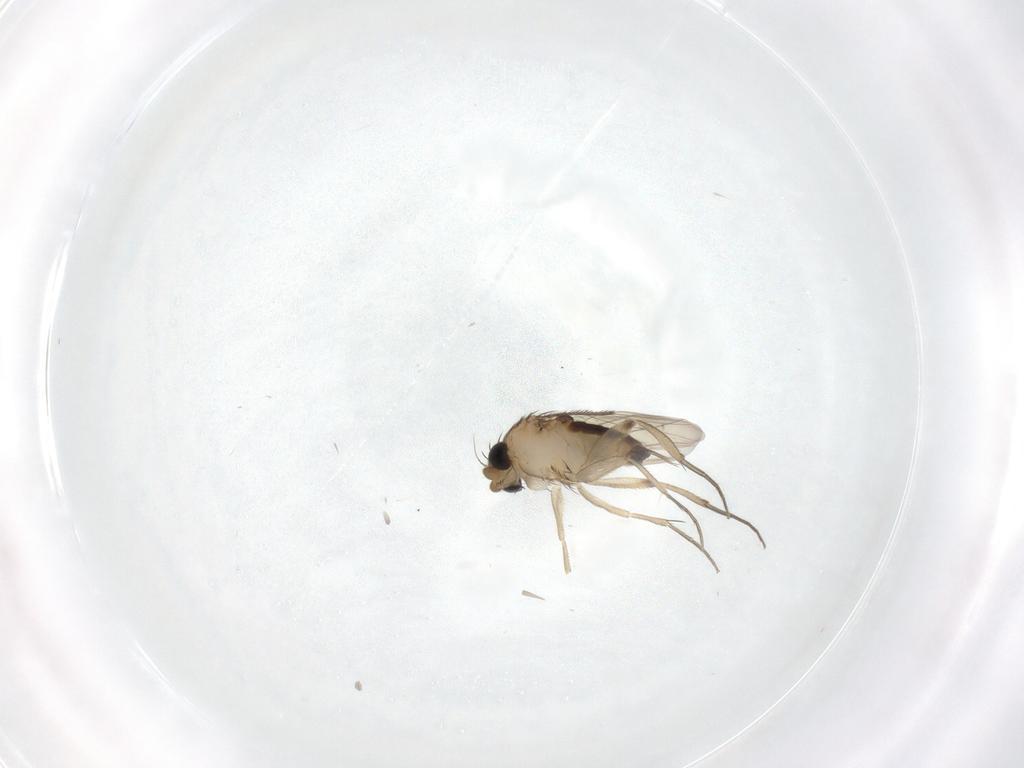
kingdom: Animalia
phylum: Arthropoda
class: Insecta
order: Diptera
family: Phoridae
